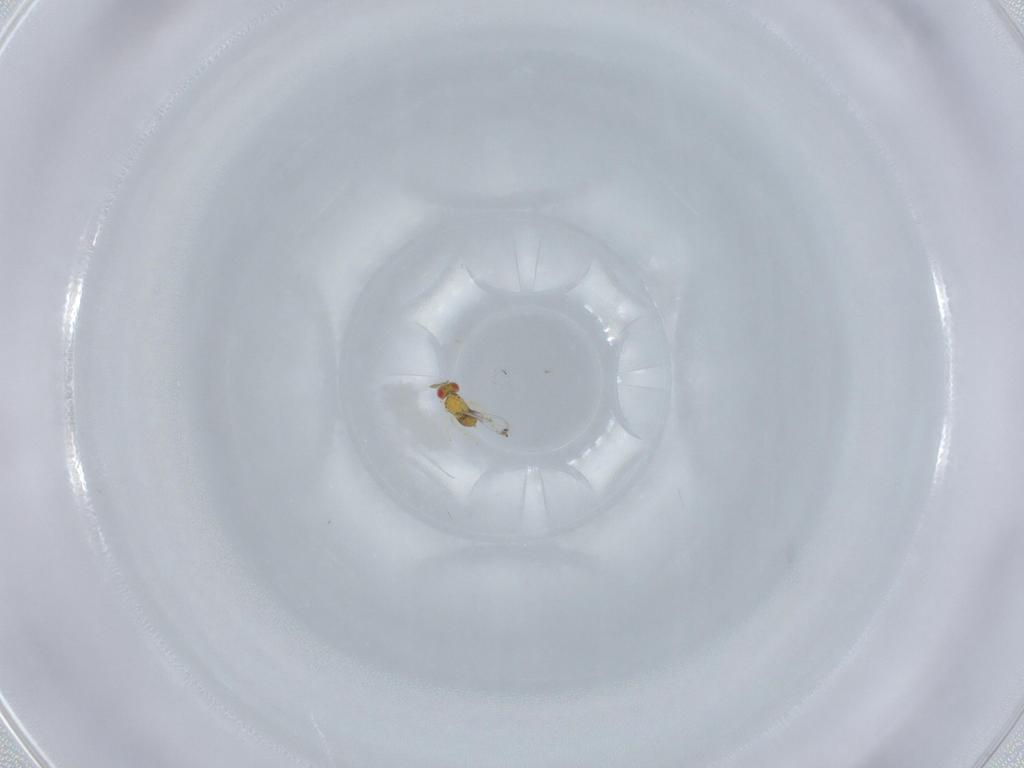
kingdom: Animalia
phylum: Arthropoda
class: Insecta
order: Hymenoptera
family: Trichogrammatidae
